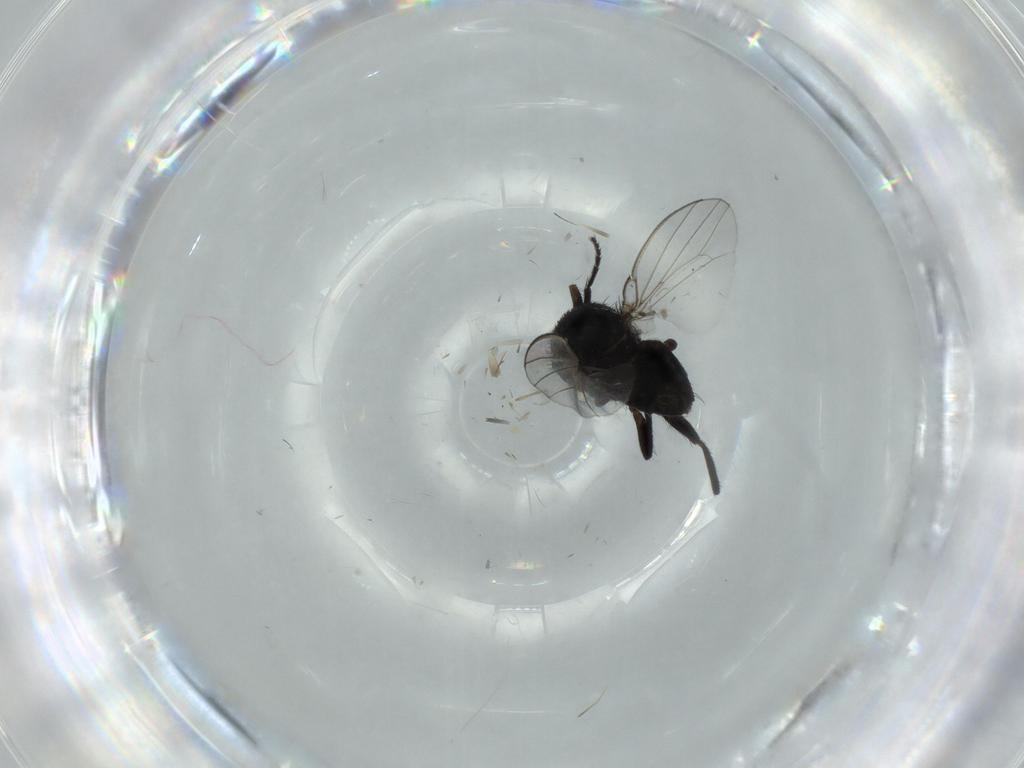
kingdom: Animalia
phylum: Arthropoda
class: Insecta
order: Diptera
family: Milichiidae
